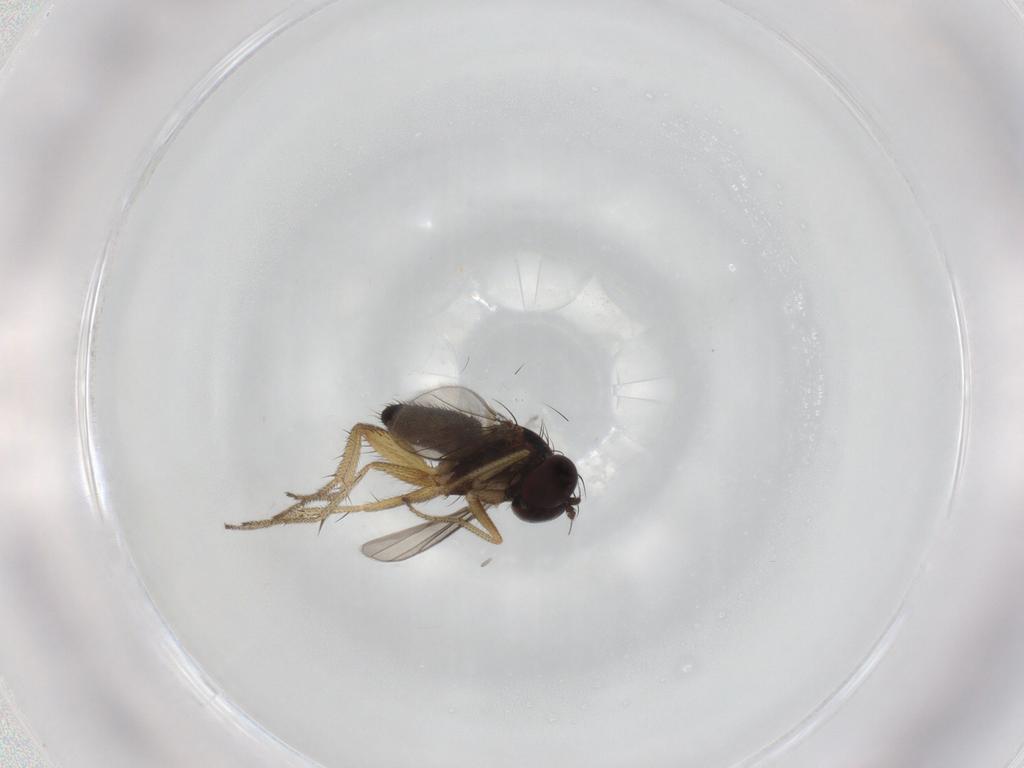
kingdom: Animalia
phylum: Arthropoda
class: Insecta
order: Diptera
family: Dolichopodidae
